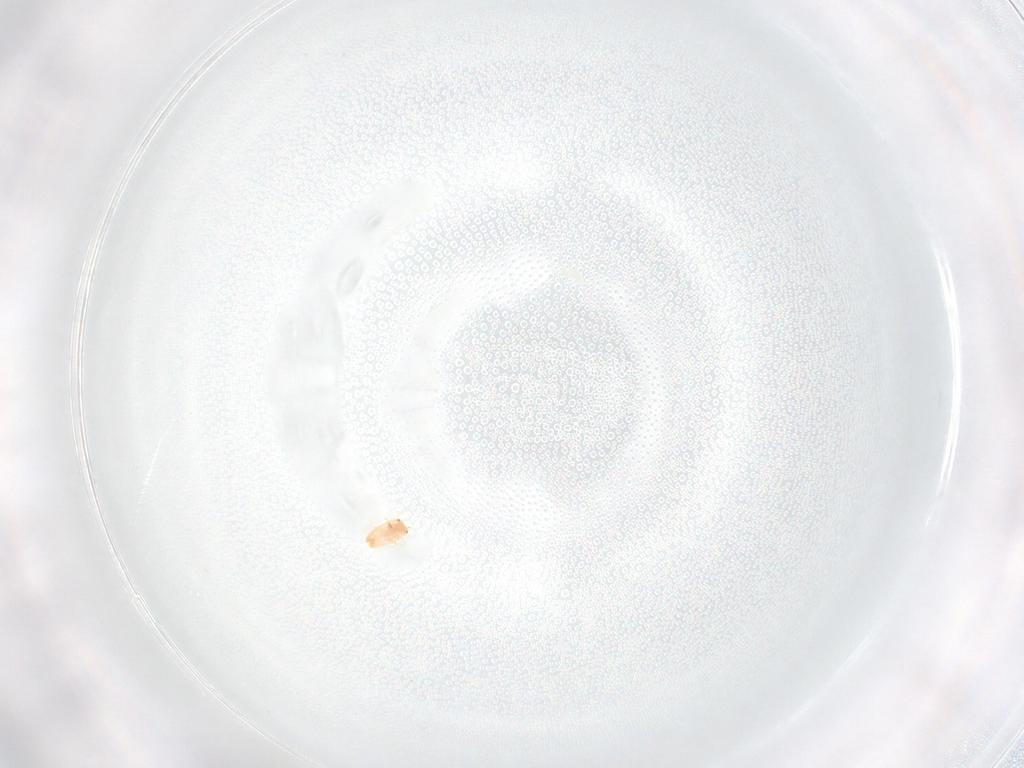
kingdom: Animalia
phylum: Arthropoda
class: Insecta
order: Hemiptera
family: Coccidae
